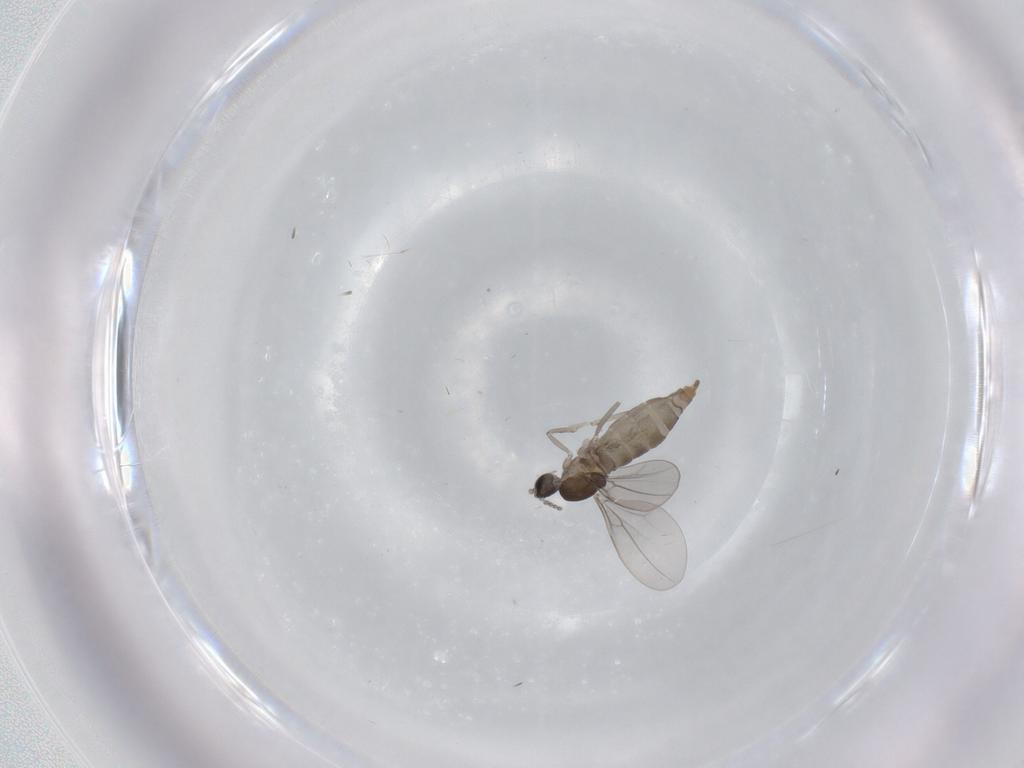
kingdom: Animalia
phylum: Arthropoda
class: Insecta
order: Diptera
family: Cecidomyiidae
